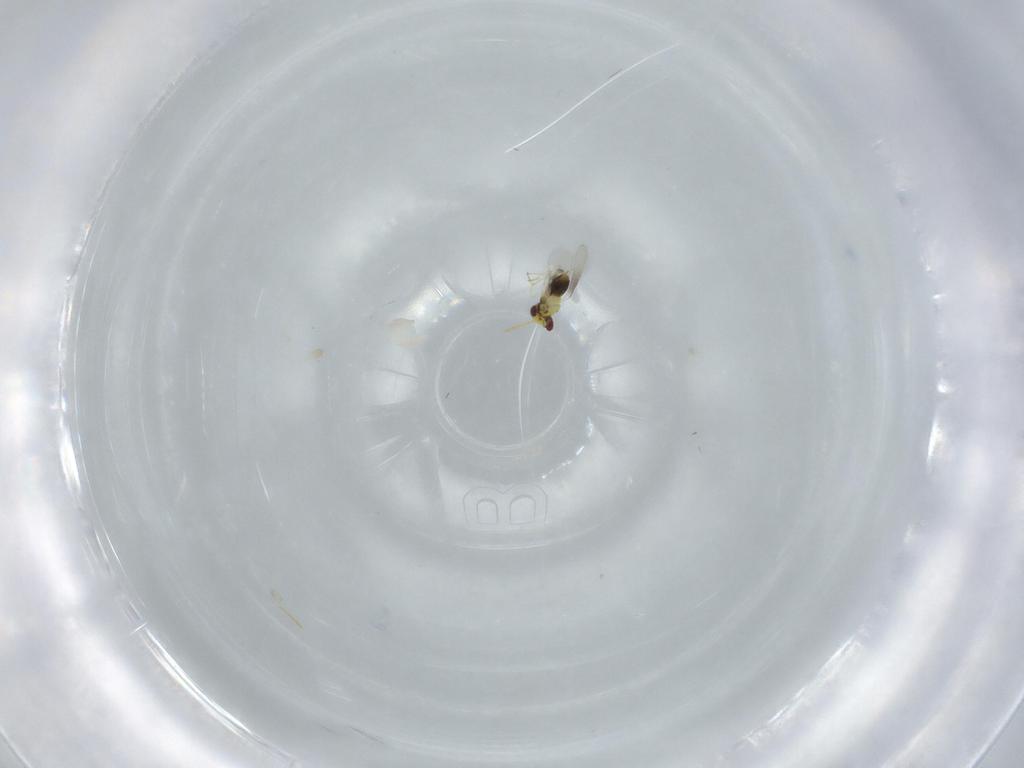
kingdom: Animalia
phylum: Arthropoda
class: Insecta
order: Hymenoptera
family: Aphelinidae
